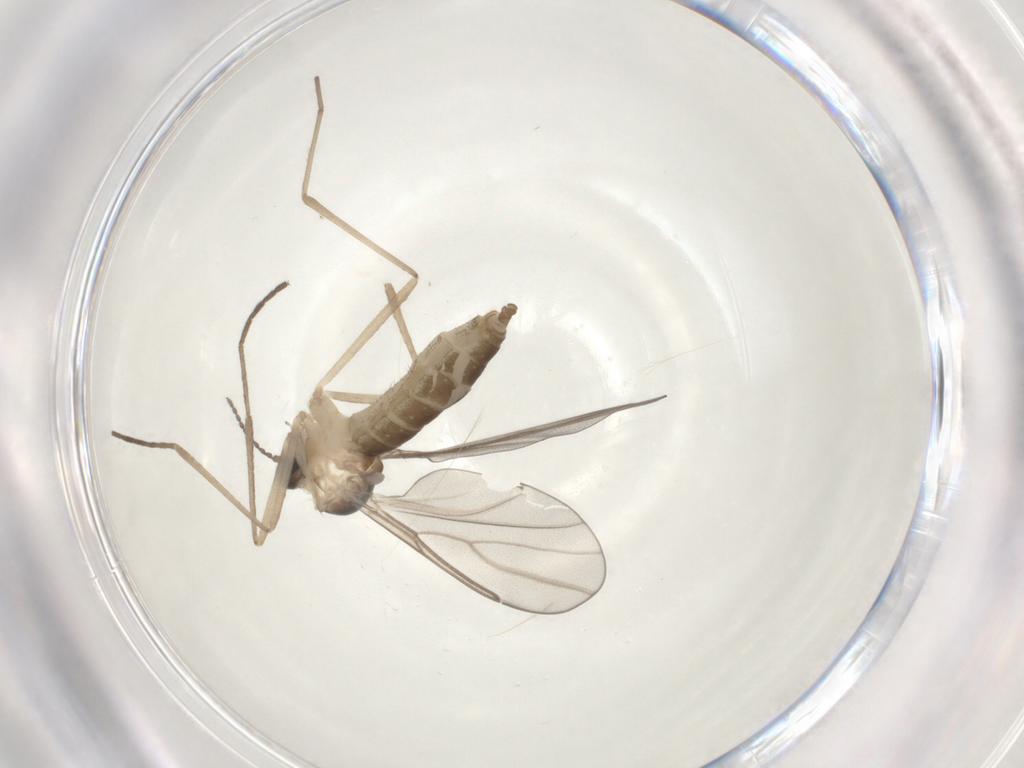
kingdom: Animalia
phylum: Arthropoda
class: Insecta
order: Diptera
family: Cecidomyiidae
